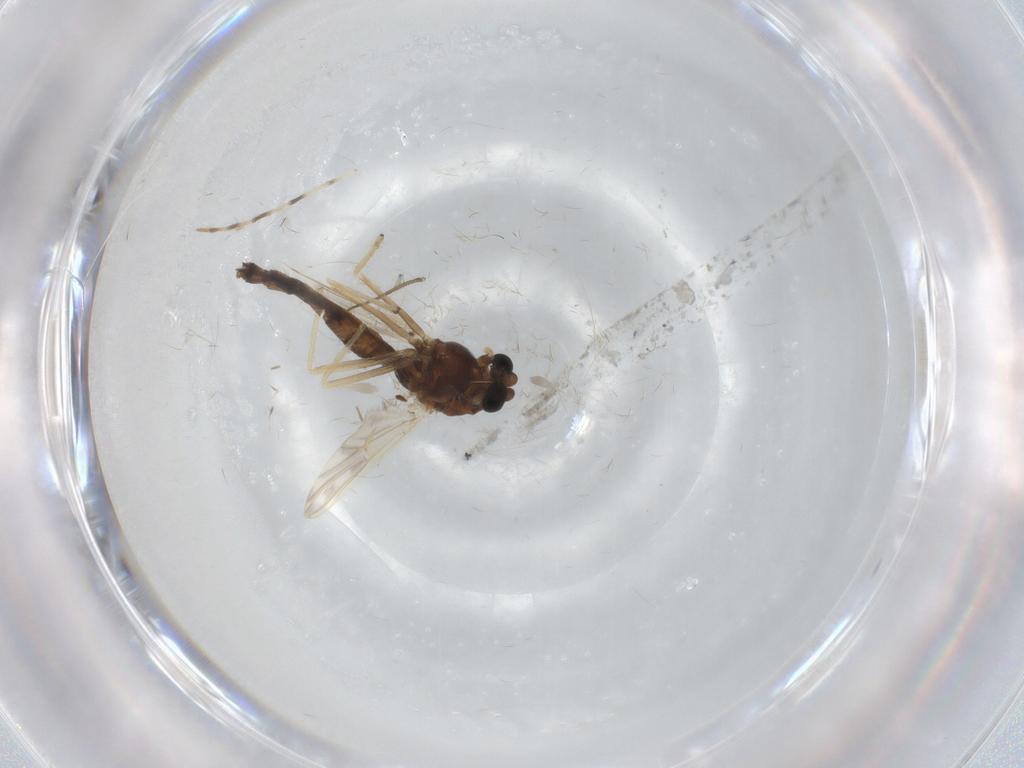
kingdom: Animalia
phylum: Arthropoda
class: Insecta
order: Diptera
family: Chironomidae
